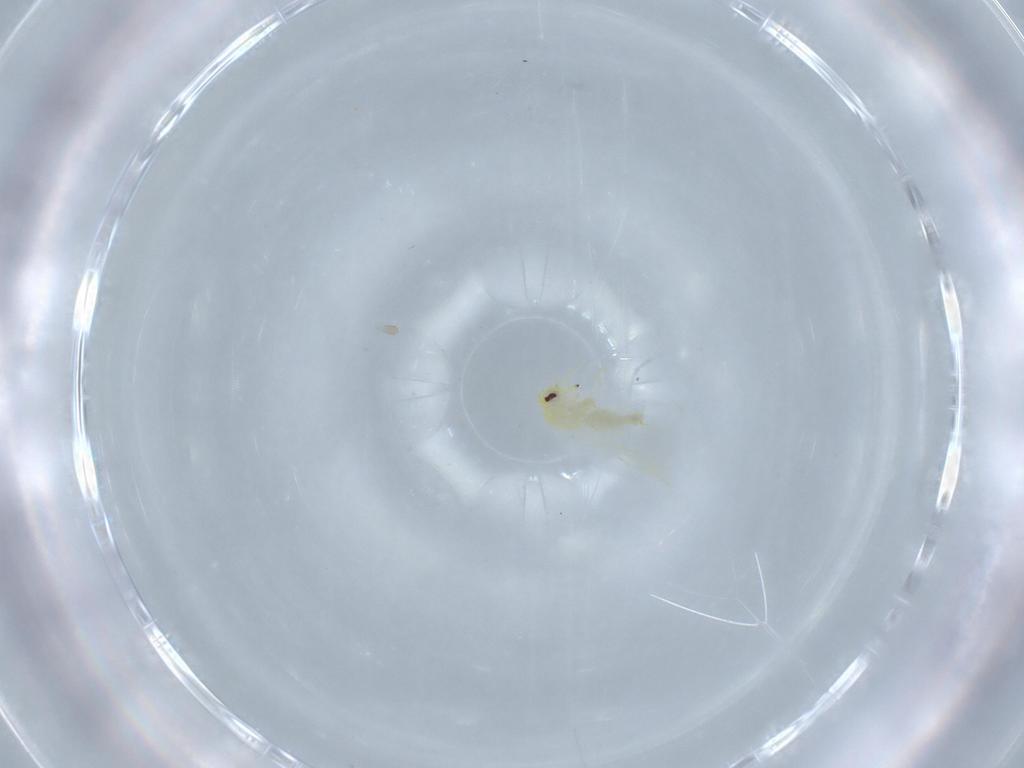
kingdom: Animalia
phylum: Arthropoda
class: Insecta
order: Hemiptera
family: Aleyrodidae
